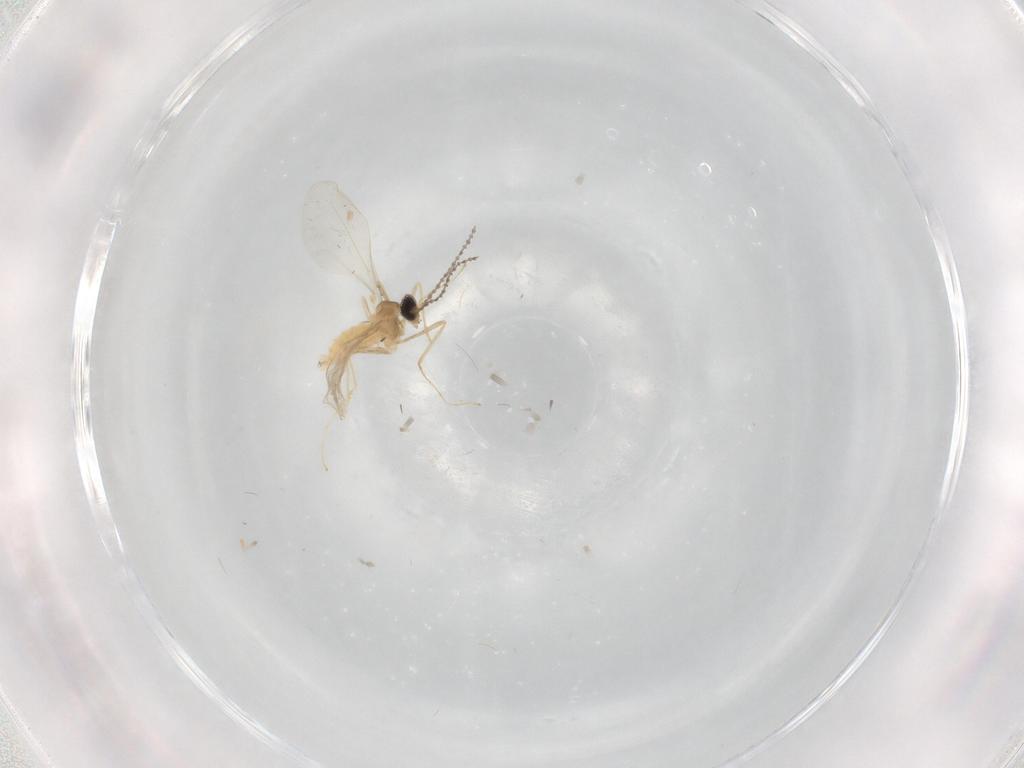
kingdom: Animalia
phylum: Arthropoda
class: Insecta
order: Diptera
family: Cecidomyiidae
